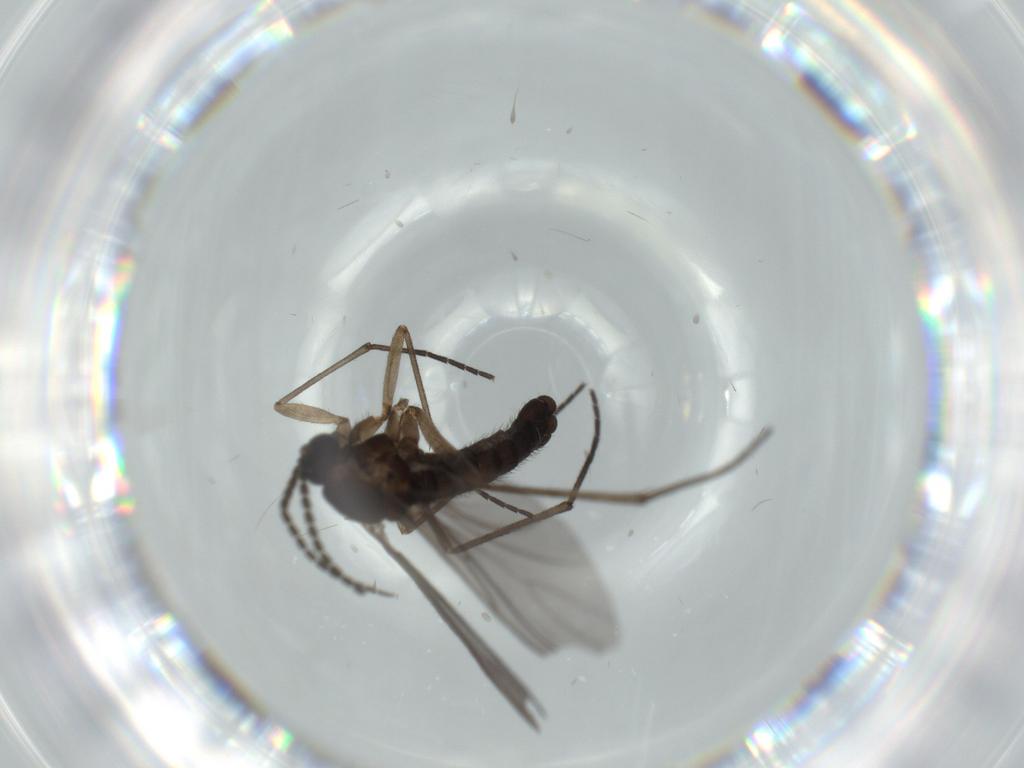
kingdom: Animalia
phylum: Arthropoda
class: Insecta
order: Diptera
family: Sciaridae
